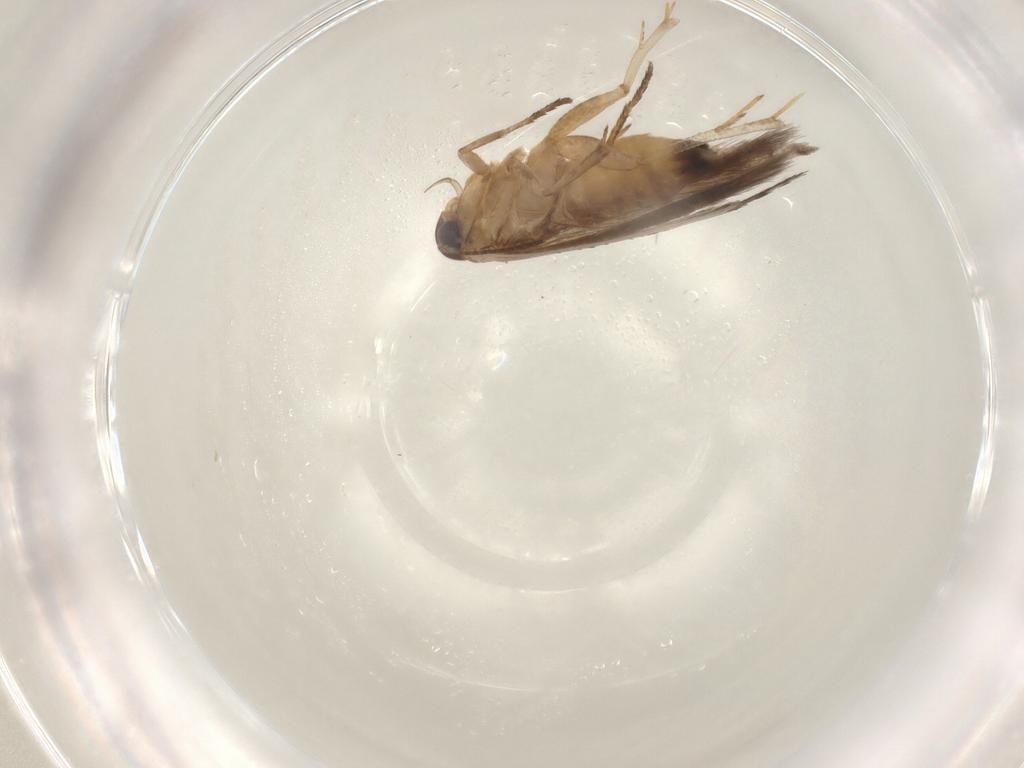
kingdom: Animalia
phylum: Arthropoda
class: Insecta
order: Lepidoptera
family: Gelechiidae
